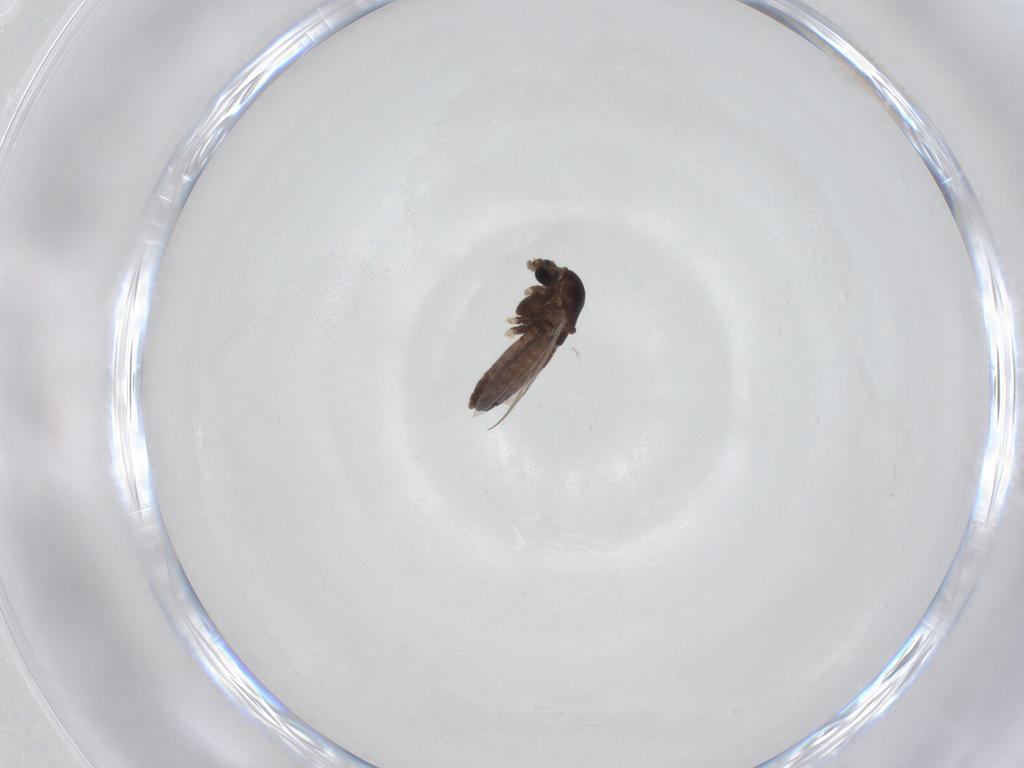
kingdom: Animalia
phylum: Arthropoda
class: Insecta
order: Diptera
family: Chironomidae
